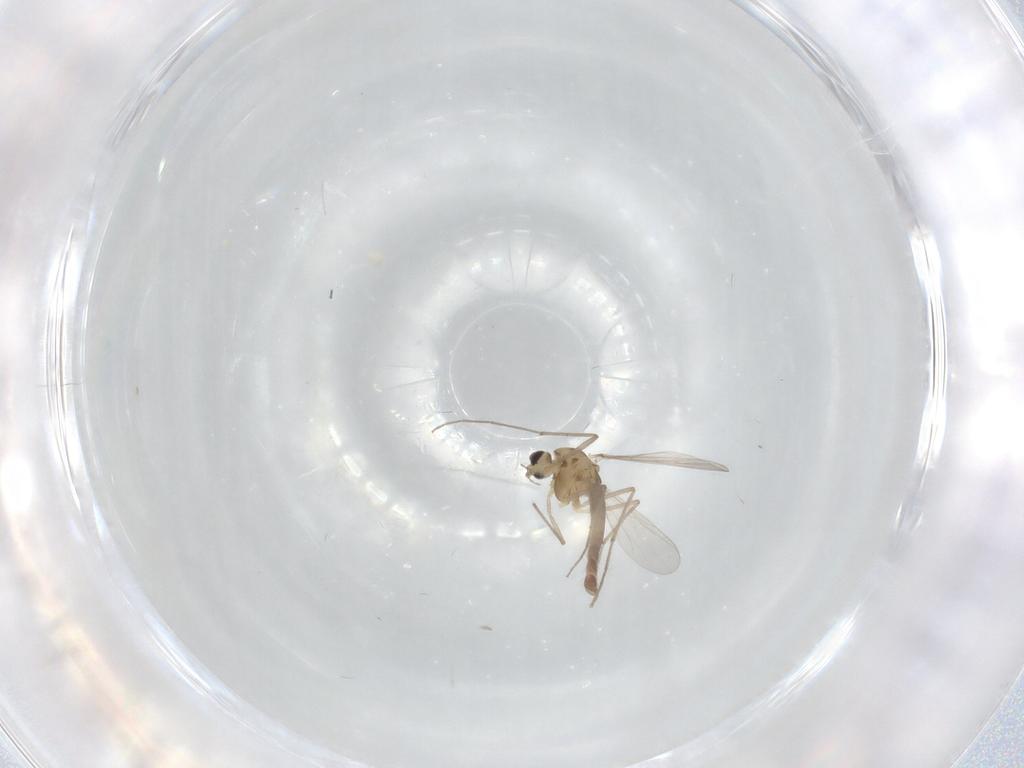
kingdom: Animalia
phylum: Arthropoda
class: Insecta
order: Diptera
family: Chironomidae
